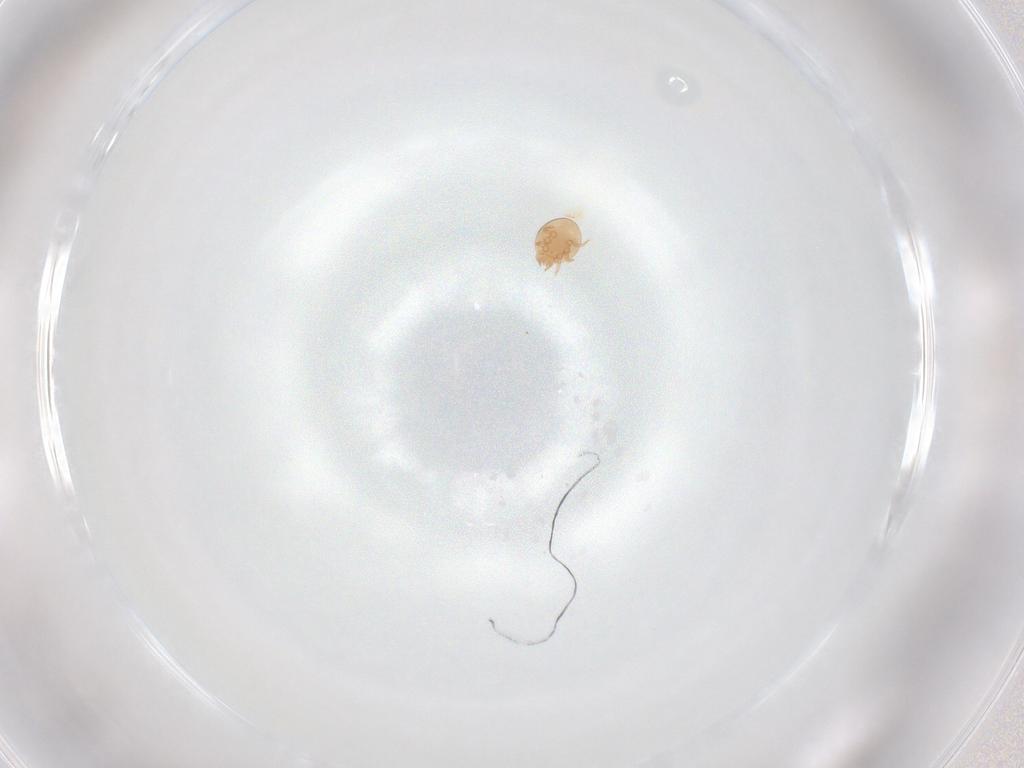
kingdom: Animalia
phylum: Arthropoda
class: Arachnida
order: Mesostigmata
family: Trematuridae
